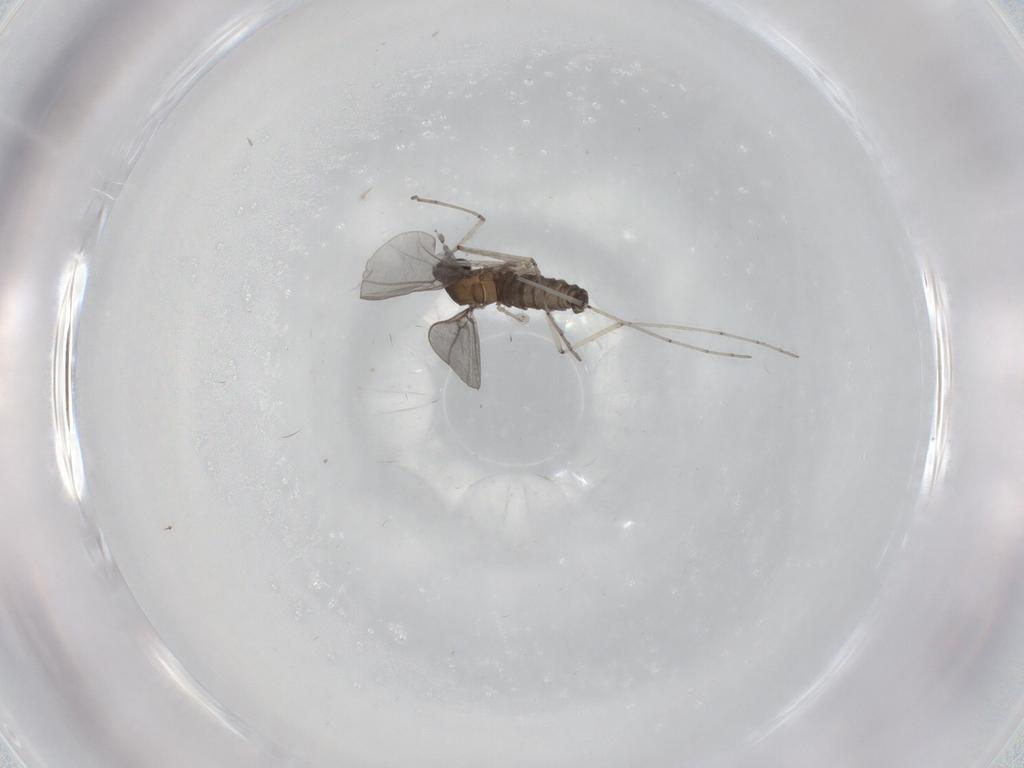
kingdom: Animalia
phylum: Arthropoda
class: Insecta
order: Diptera
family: Cecidomyiidae
